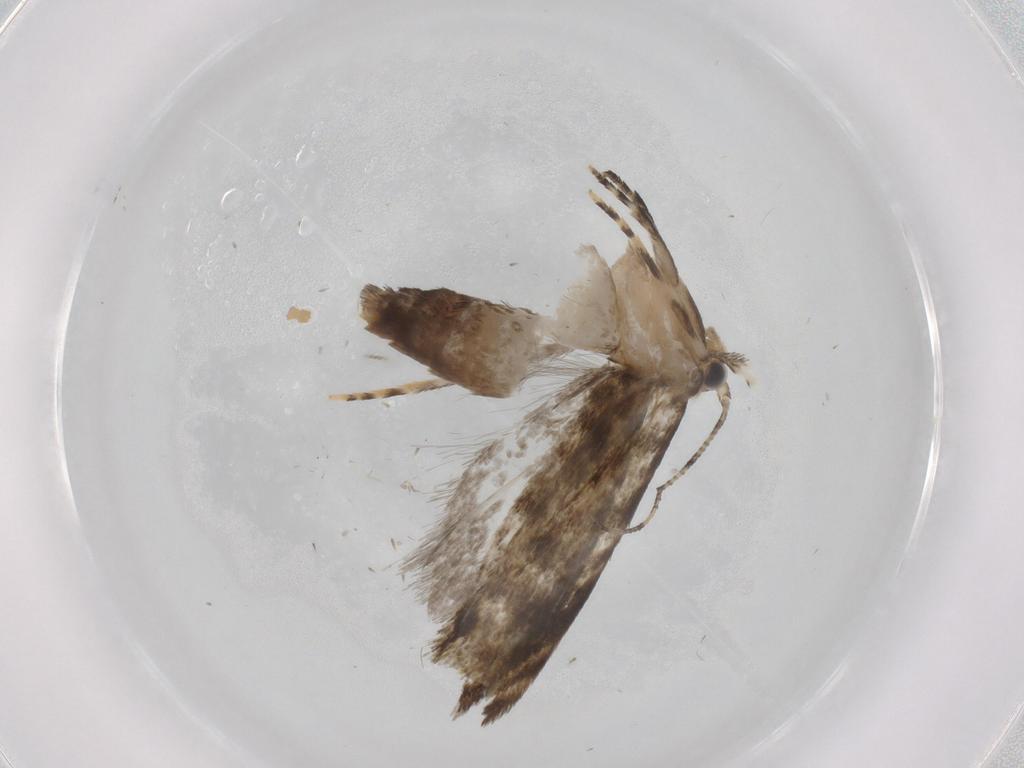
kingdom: Animalia
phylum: Arthropoda
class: Insecta
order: Lepidoptera
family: Tineidae
